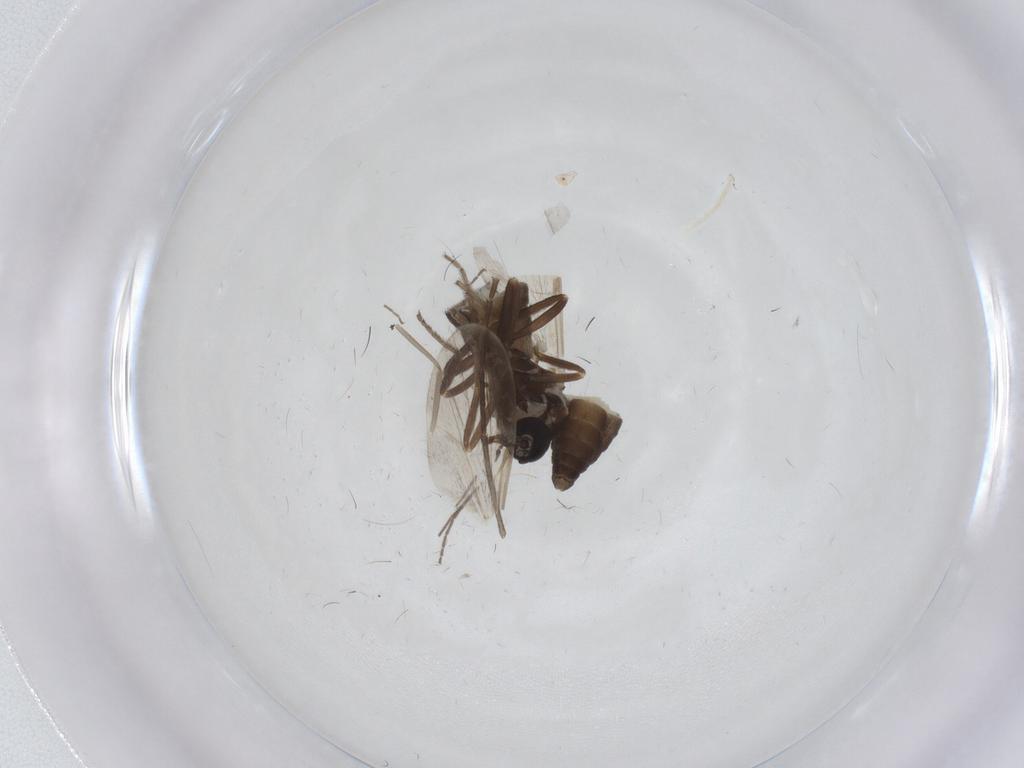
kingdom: Animalia
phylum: Arthropoda
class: Insecta
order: Diptera
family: Ceratopogonidae
